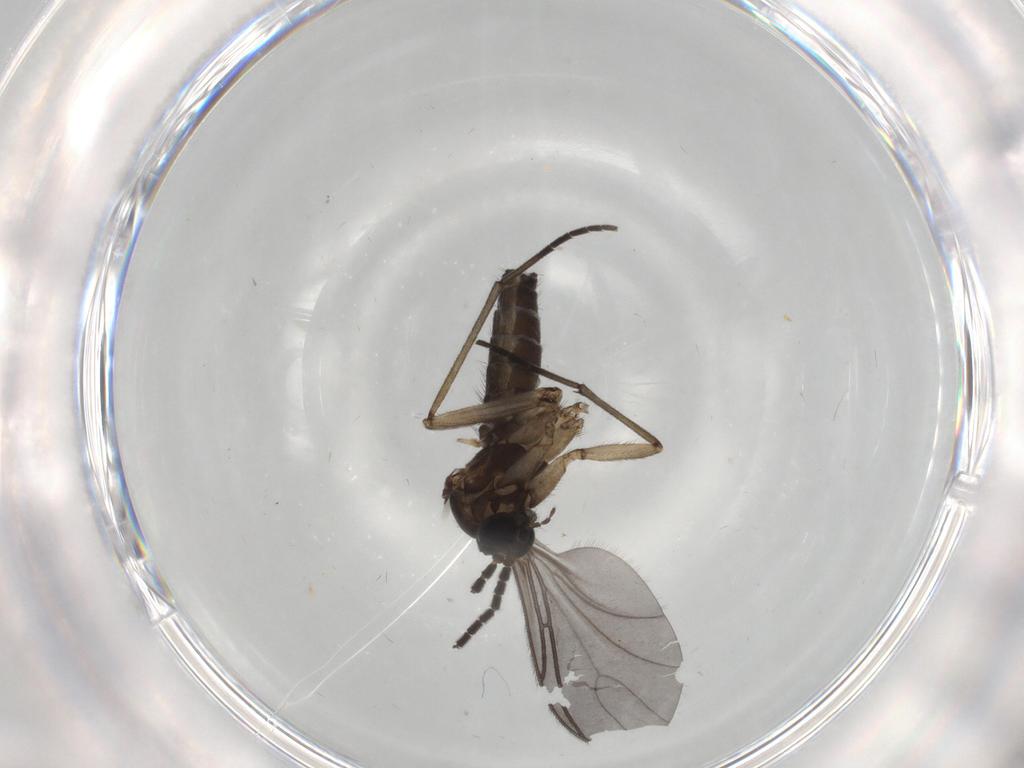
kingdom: Animalia
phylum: Arthropoda
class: Insecta
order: Diptera
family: Sciaridae
